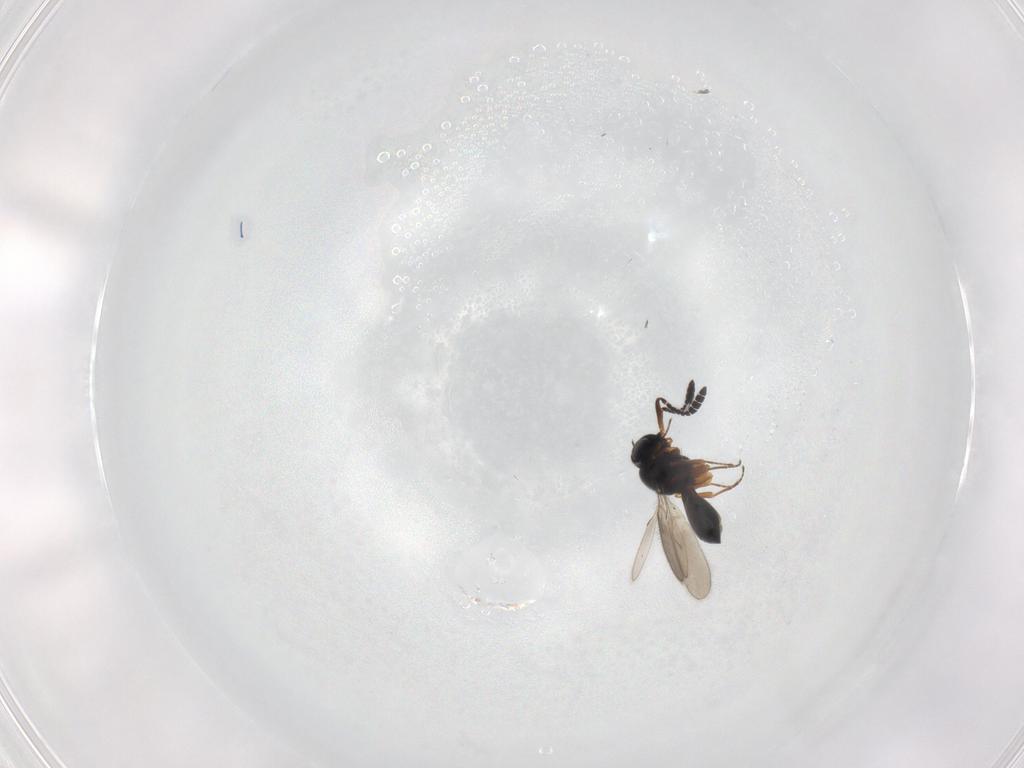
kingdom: Animalia
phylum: Arthropoda
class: Insecta
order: Hymenoptera
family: Scelionidae
